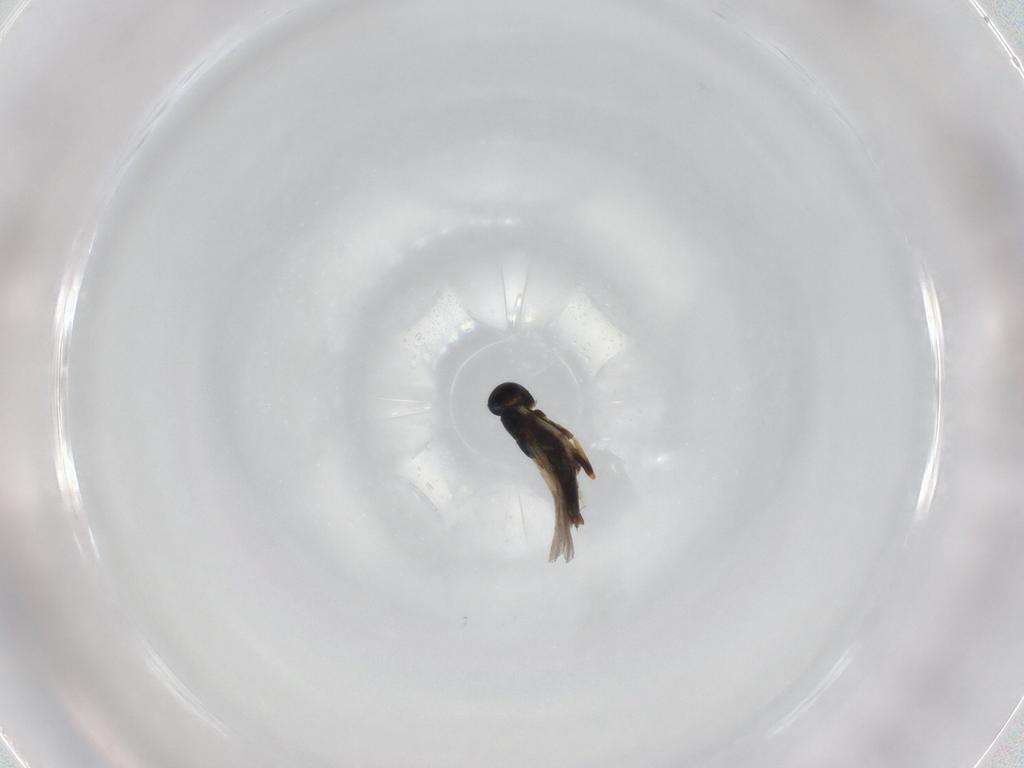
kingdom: Animalia
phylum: Arthropoda
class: Insecta
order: Hymenoptera
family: Encyrtidae
